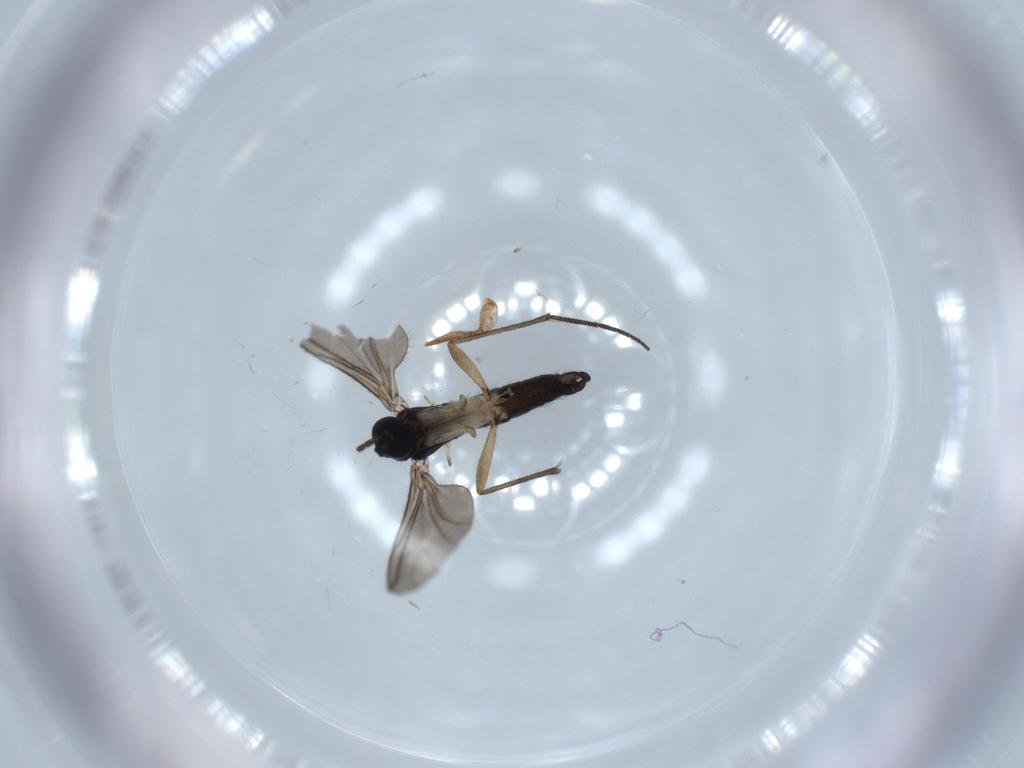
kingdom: Animalia
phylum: Arthropoda
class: Insecta
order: Diptera
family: Sciaridae
